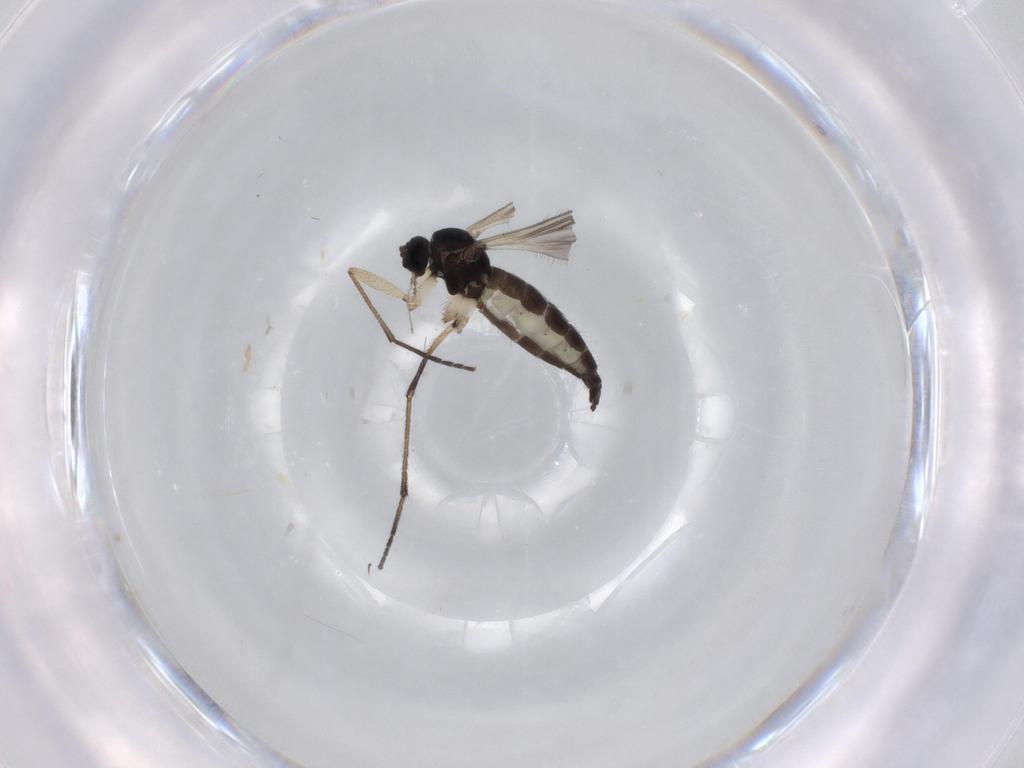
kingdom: Animalia
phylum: Arthropoda
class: Insecta
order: Diptera
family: Sciaridae
